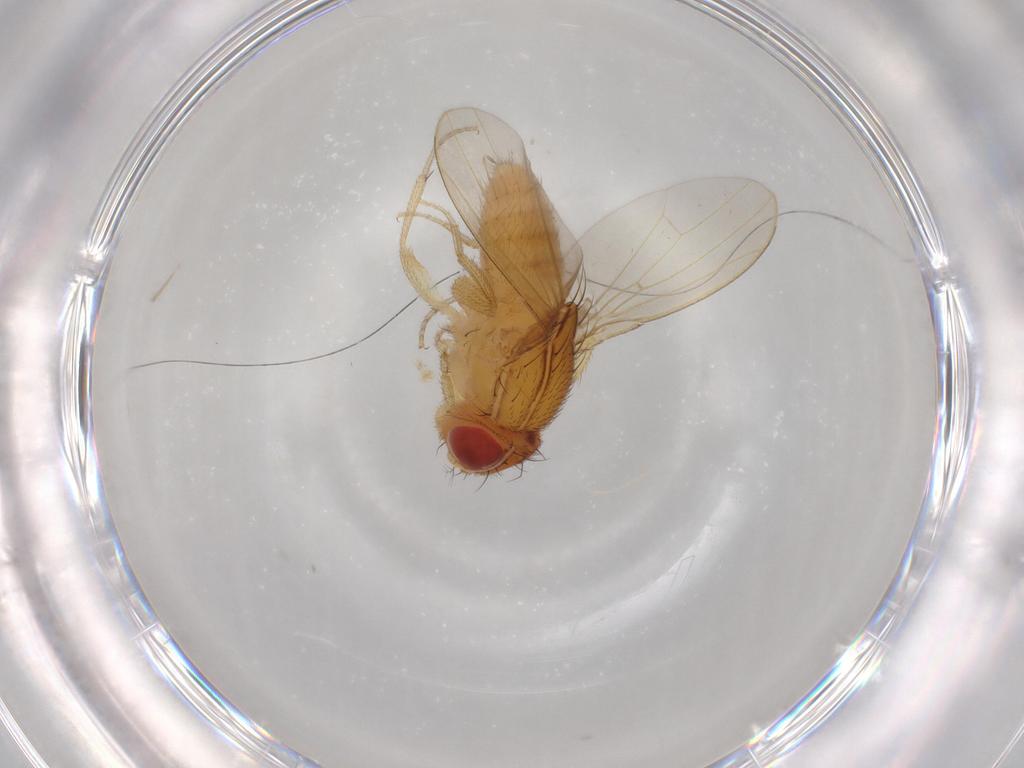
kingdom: Animalia
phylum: Arthropoda
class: Insecta
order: Diptera
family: Drosophilidae
